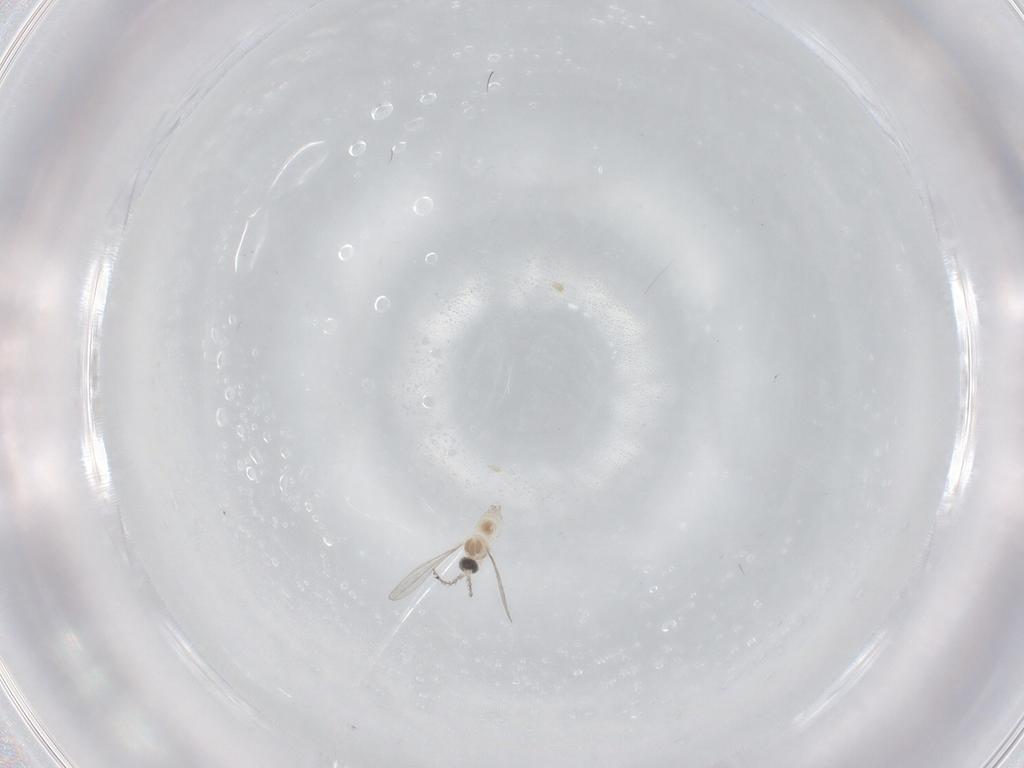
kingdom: Animalia
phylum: Arthropoda
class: Insecta
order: Diptera
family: Cecidomyiidae
